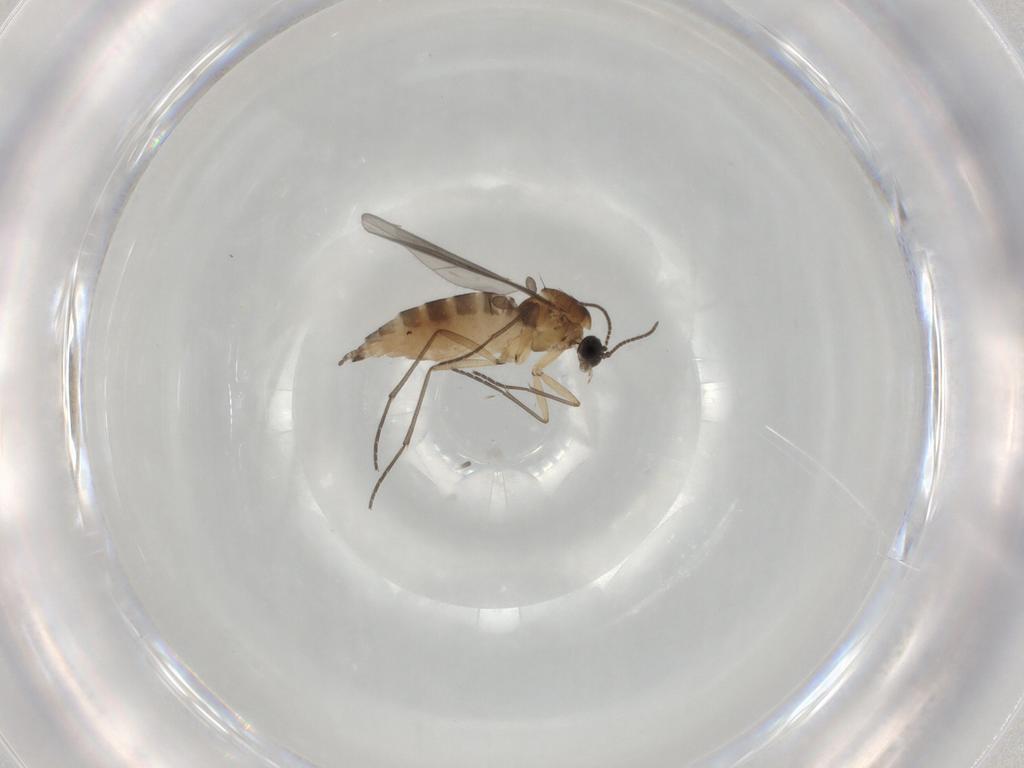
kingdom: Animalia
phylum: Arthropoda
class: Insecta
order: Diptera
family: Sciaridae
